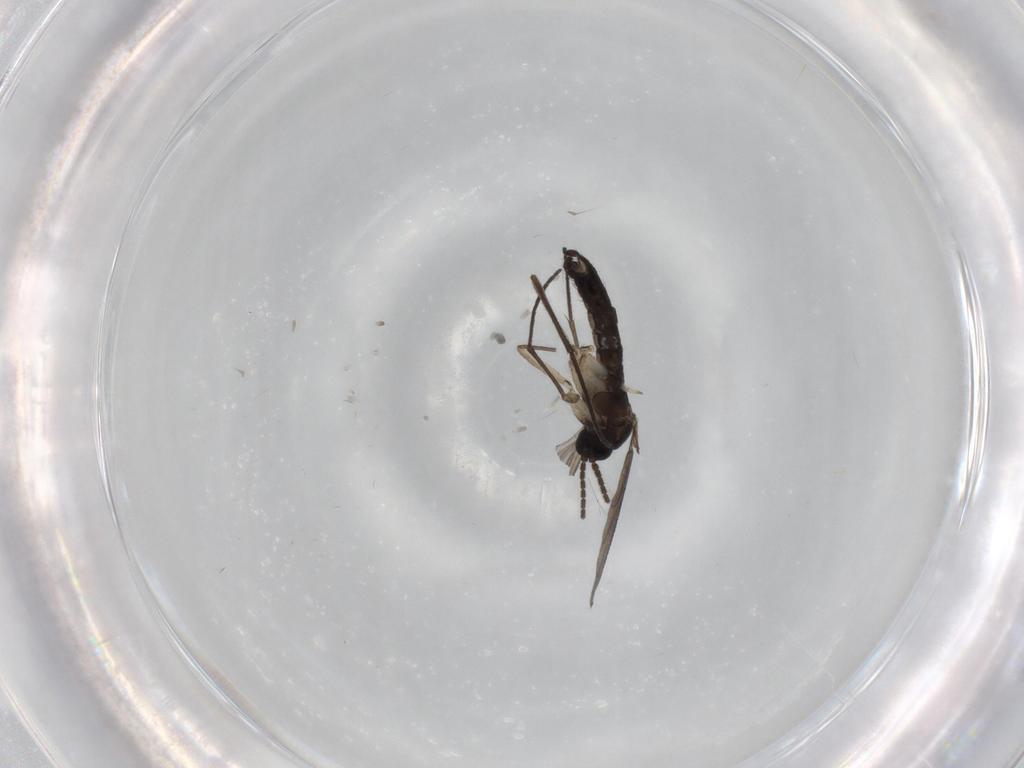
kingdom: Animalia
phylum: Arthropoda
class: Insecta
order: Diptera
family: Sciaridae
